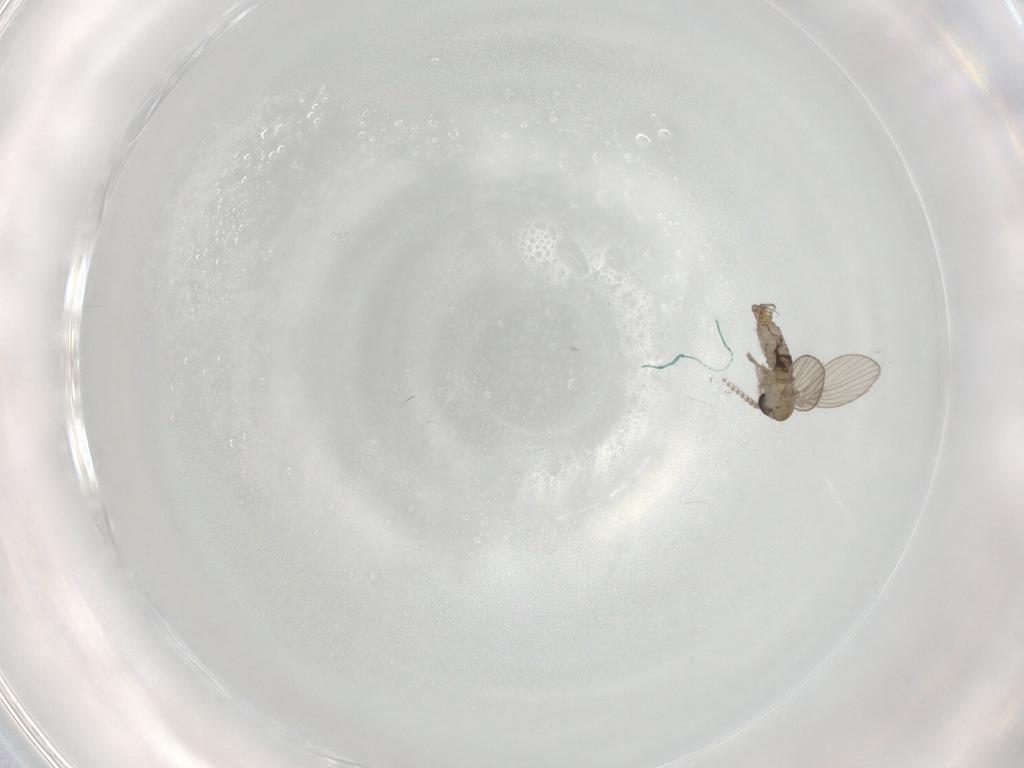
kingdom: Animalia
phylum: Arthropoda
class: Insecta
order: Diptera
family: Psychodidae
